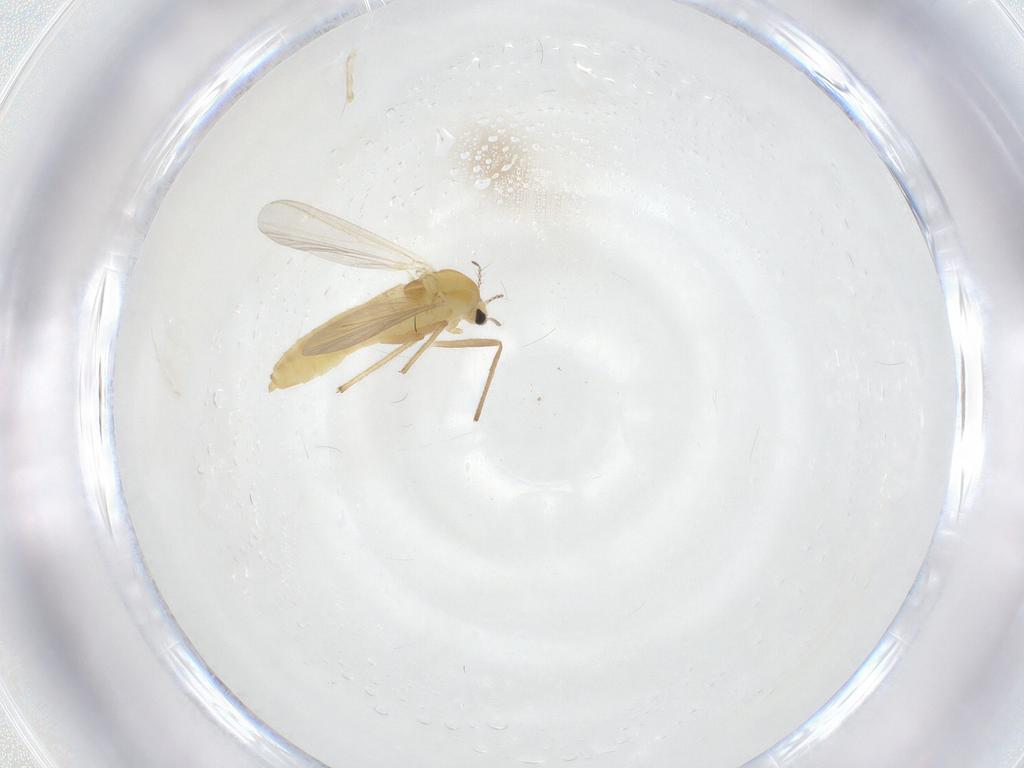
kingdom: Animalia
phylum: Arthropoda
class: Insecta
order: Diptera
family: Chironomidae
